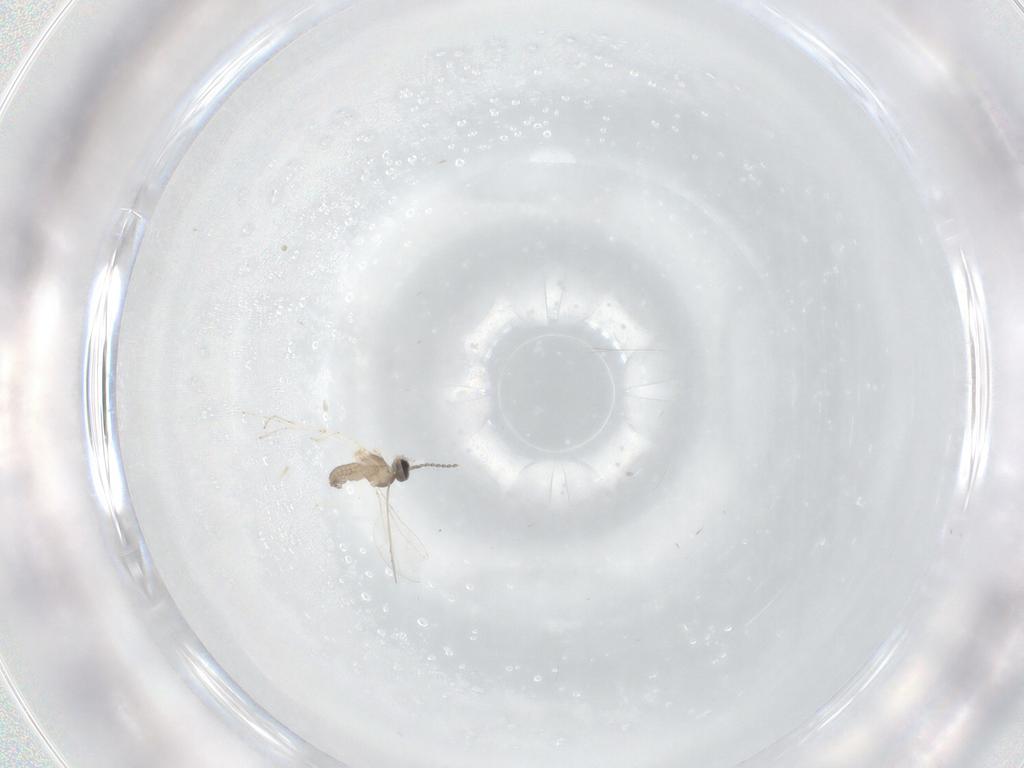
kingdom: Animalia
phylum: Arthropoda
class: Insecta
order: Diptera
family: Cecidomyiidae
